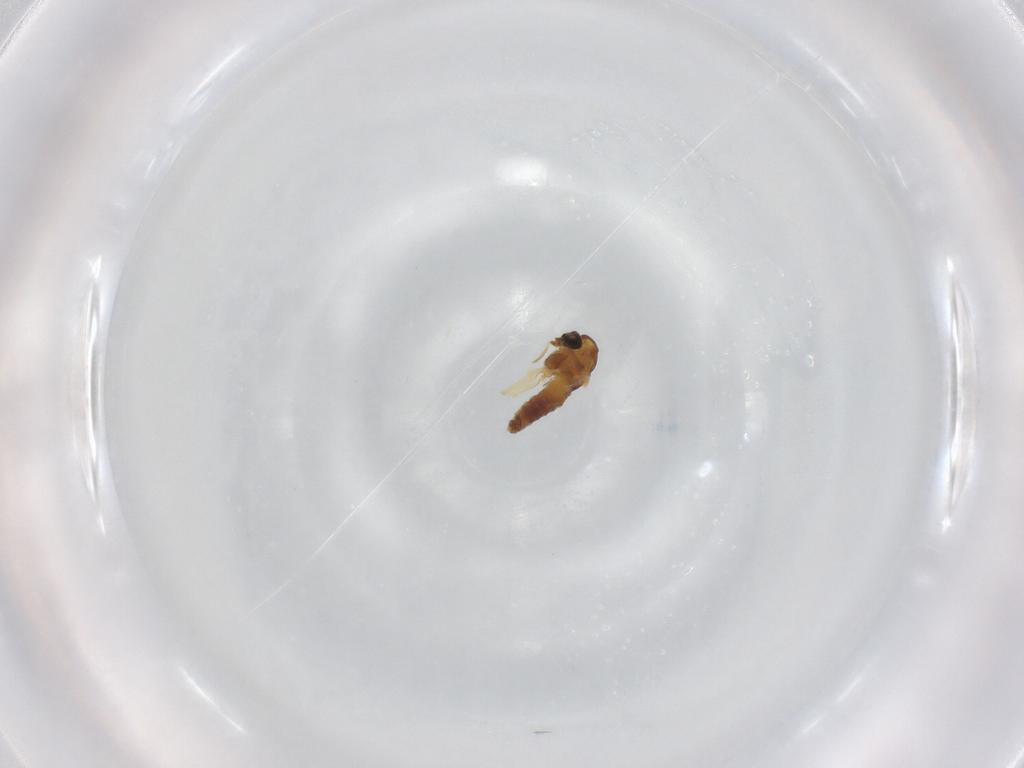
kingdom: Animalia
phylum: Arthropoda
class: Insecta
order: Diptera
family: Chironomidae
